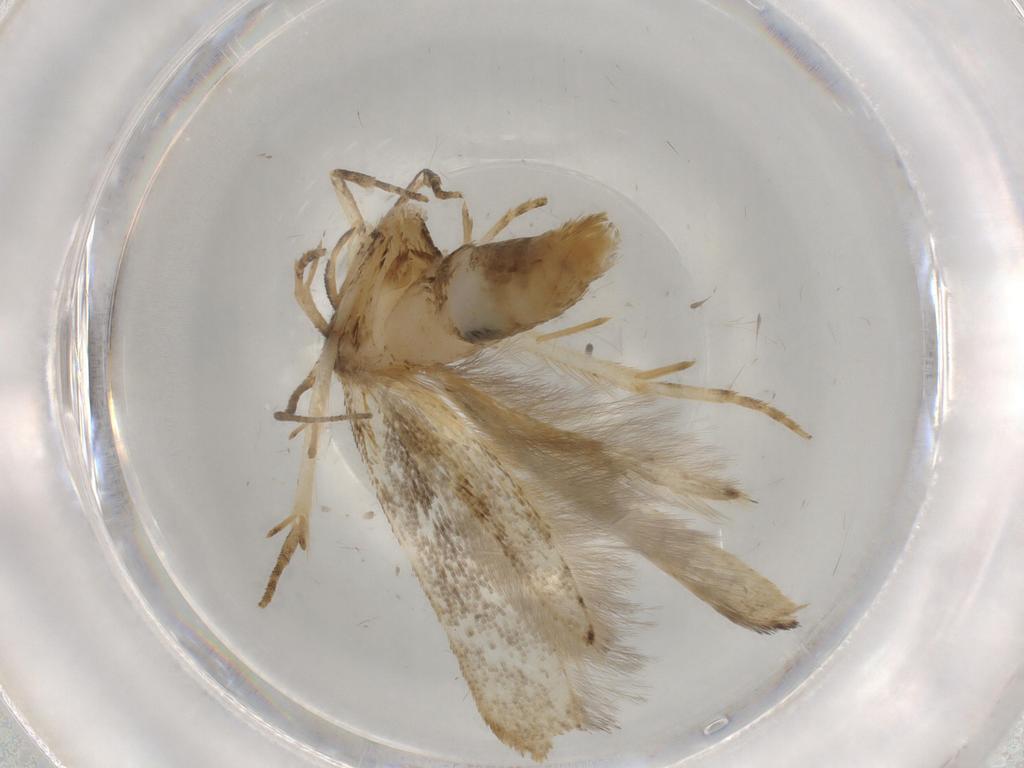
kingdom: Animalia
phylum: Arthropoda
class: Insecta
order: Lepidoptera
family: Cosmopterigidae
